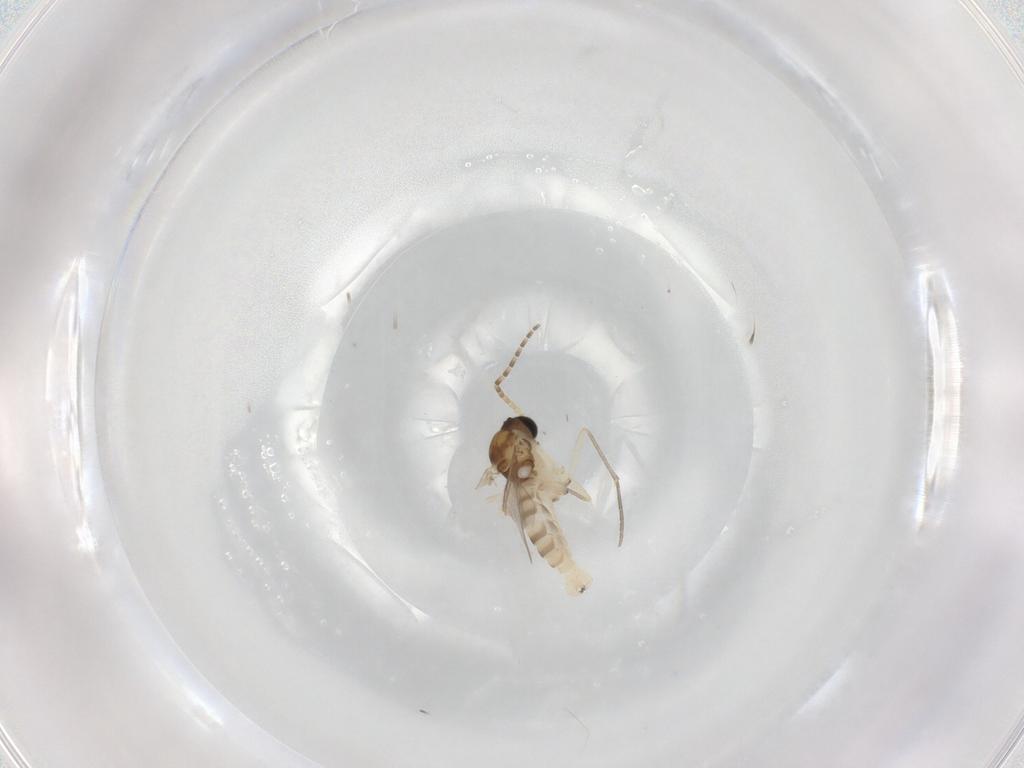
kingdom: Animalia
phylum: Arthropoda
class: Insecta
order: Diptera
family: Sciaridae
